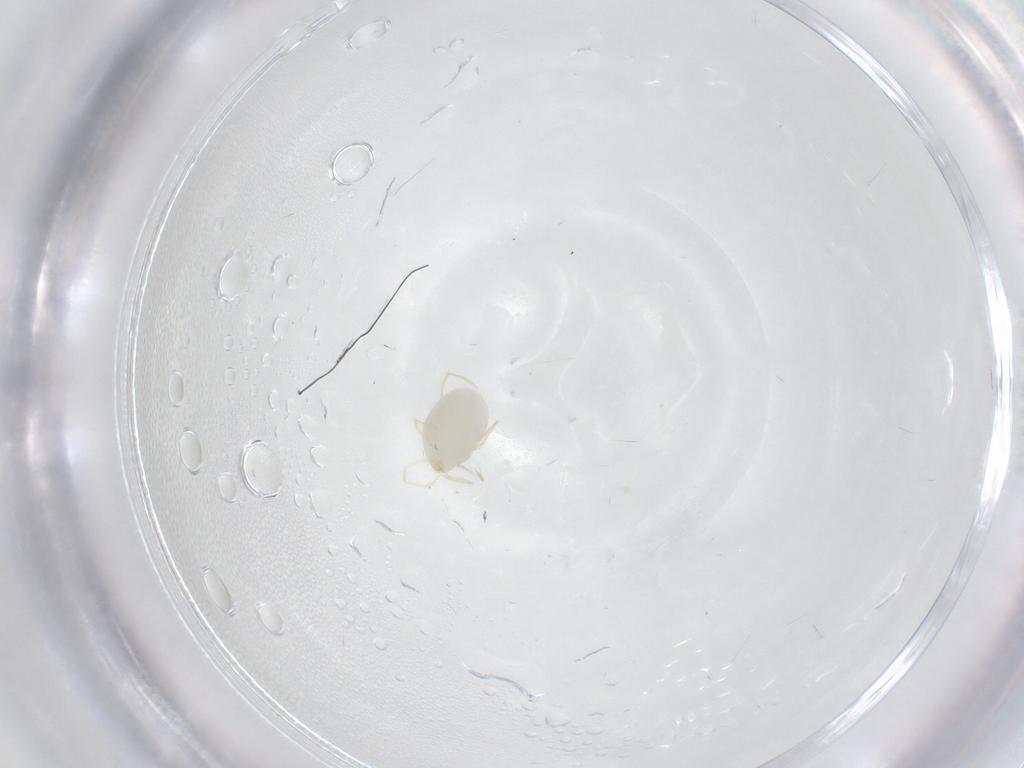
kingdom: Animalia
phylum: Arthropoda
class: Arachnida
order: Trombidiformes
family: Erythraeidae
